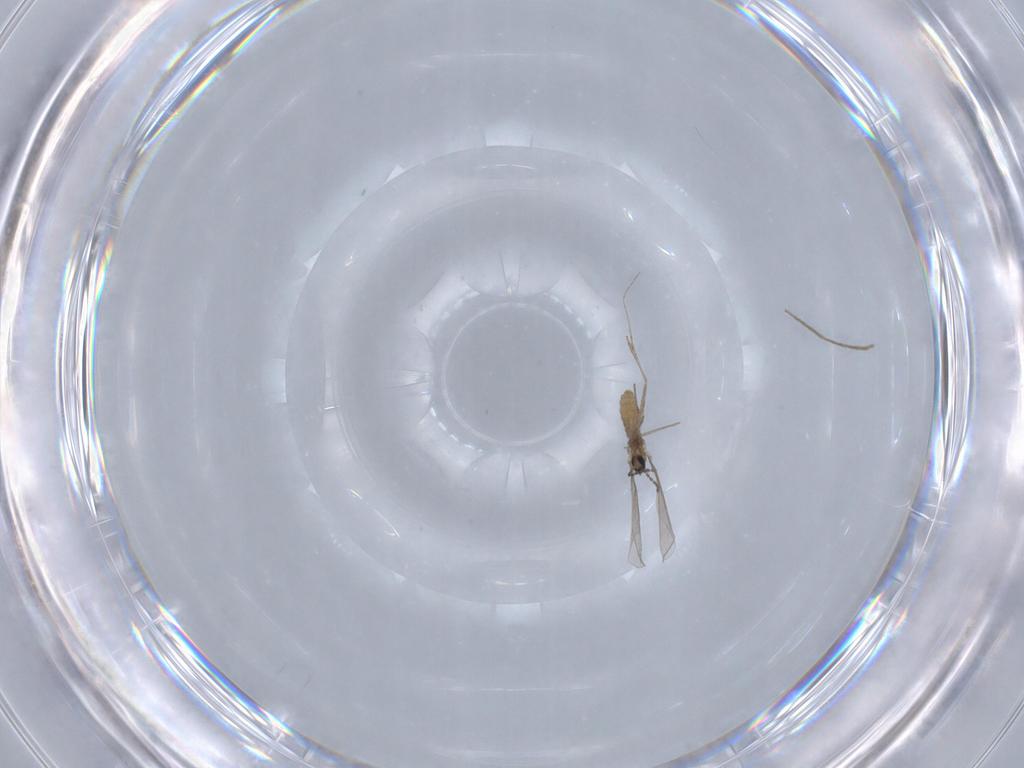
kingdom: Animalia
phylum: Arthropoda
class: Insecta
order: Diptera
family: Chironomidae
